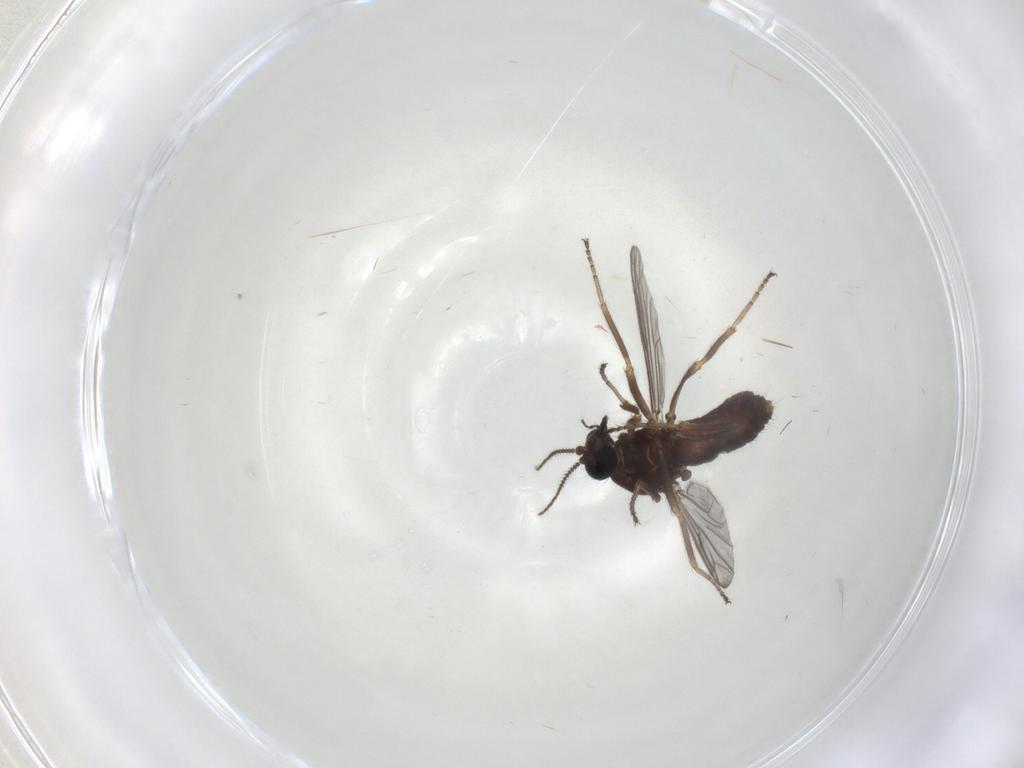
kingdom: Animalia
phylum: Arthropoda
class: Insecta
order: Diptera
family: Ceratopogonidae
